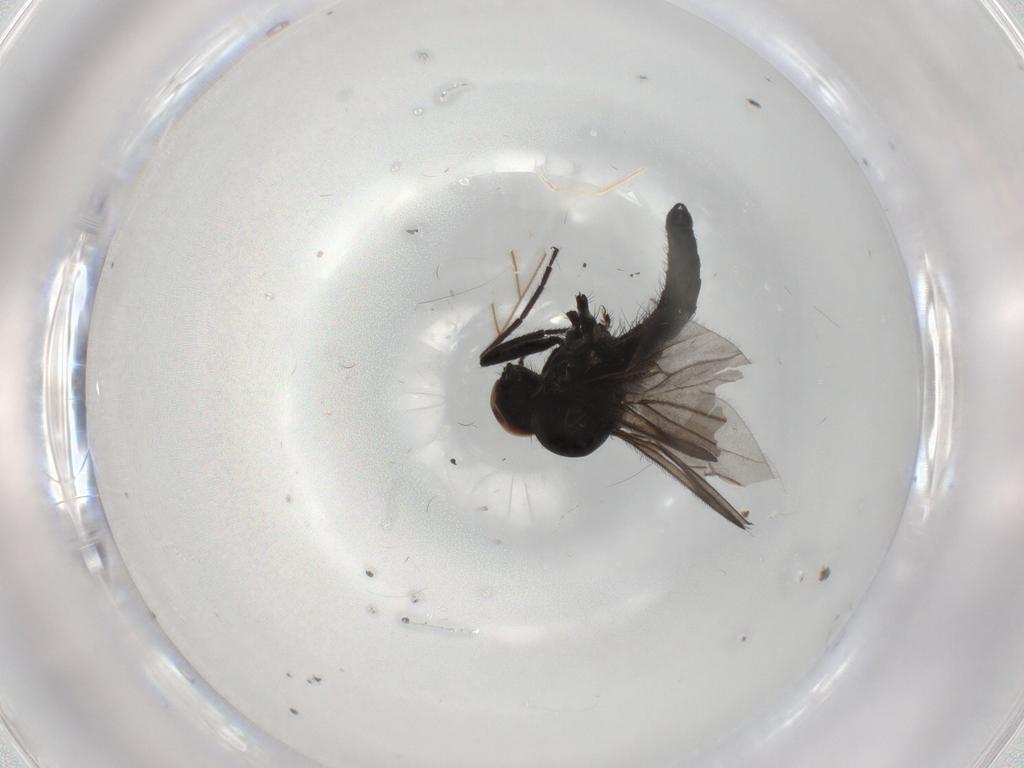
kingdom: Animalia
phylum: Arthropoda
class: Insecta
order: Diptera
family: Hybotidae
